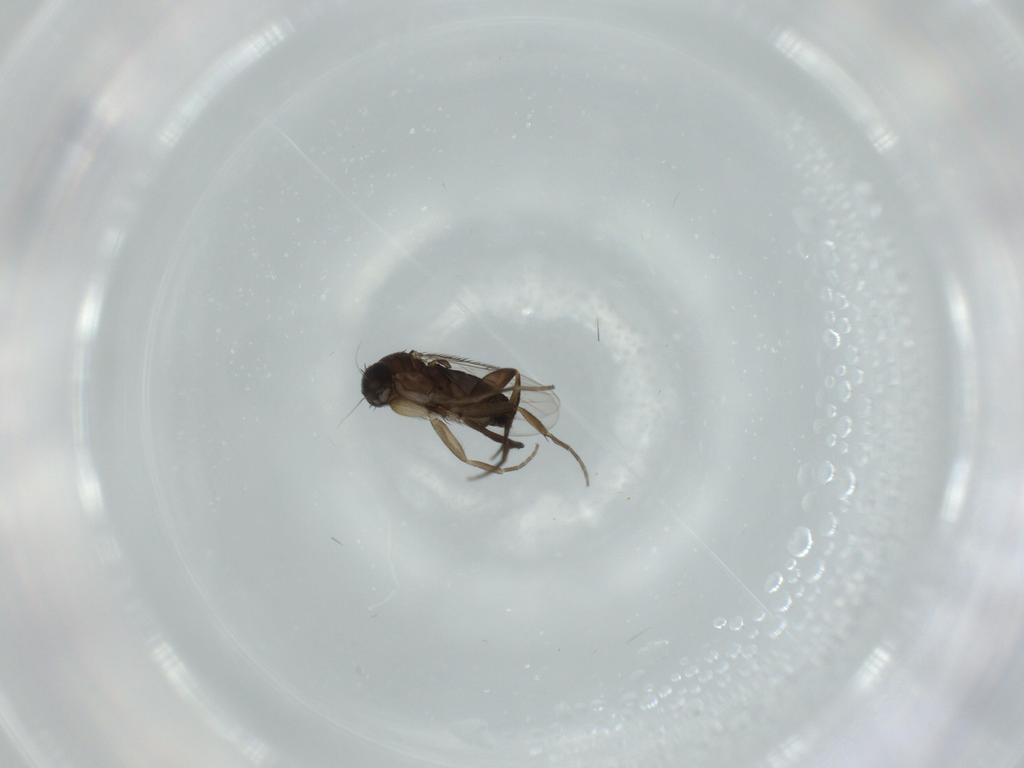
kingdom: Animalia
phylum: Arthropoda
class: Insecta
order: Diptera
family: Phoridae
